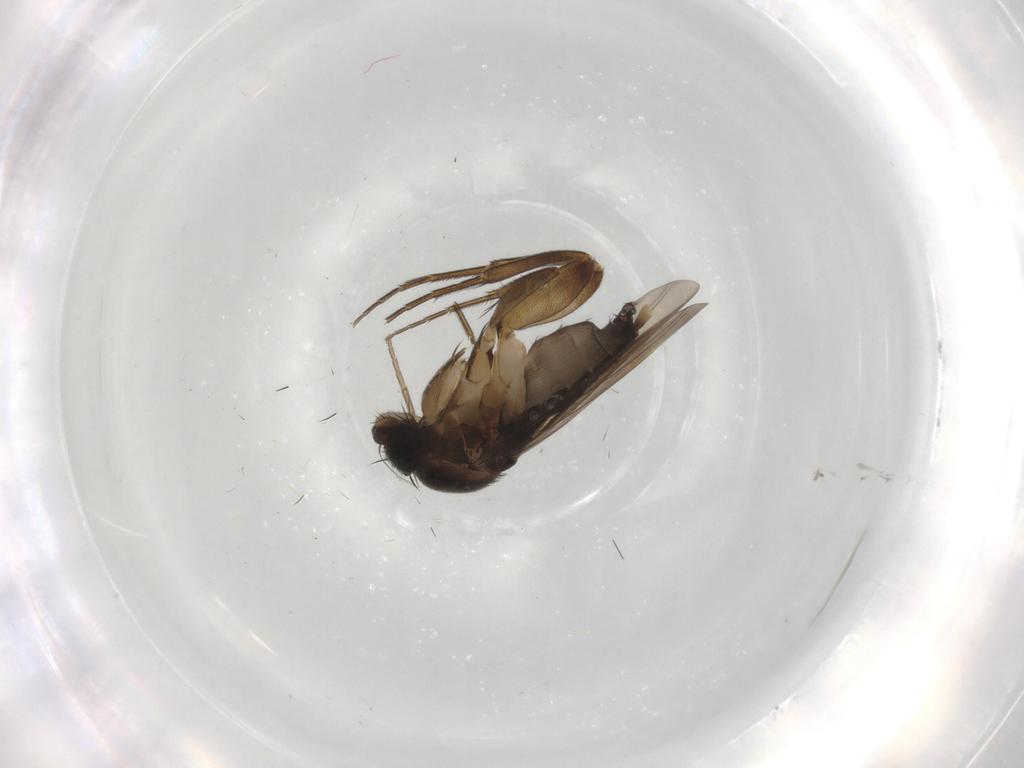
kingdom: Animalia
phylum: Arthropoda
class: Insecta
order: Diptera
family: Phoridae
